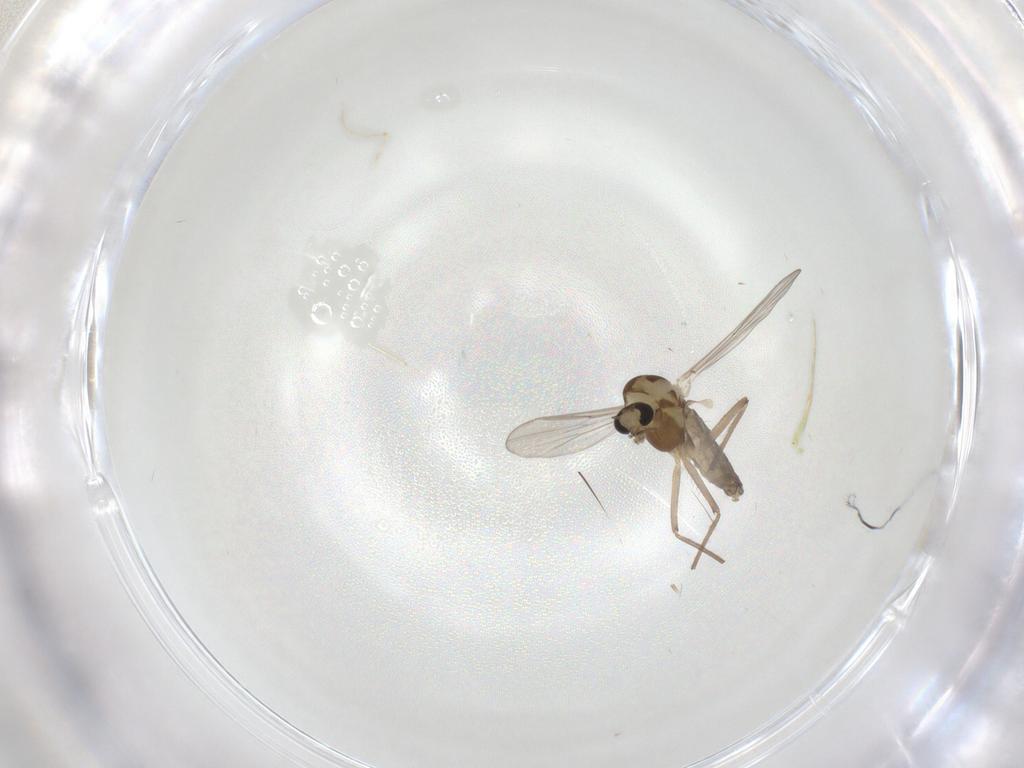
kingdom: Animalia
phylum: Arthropoda
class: Insecta
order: Diptera
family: Chironomidae
